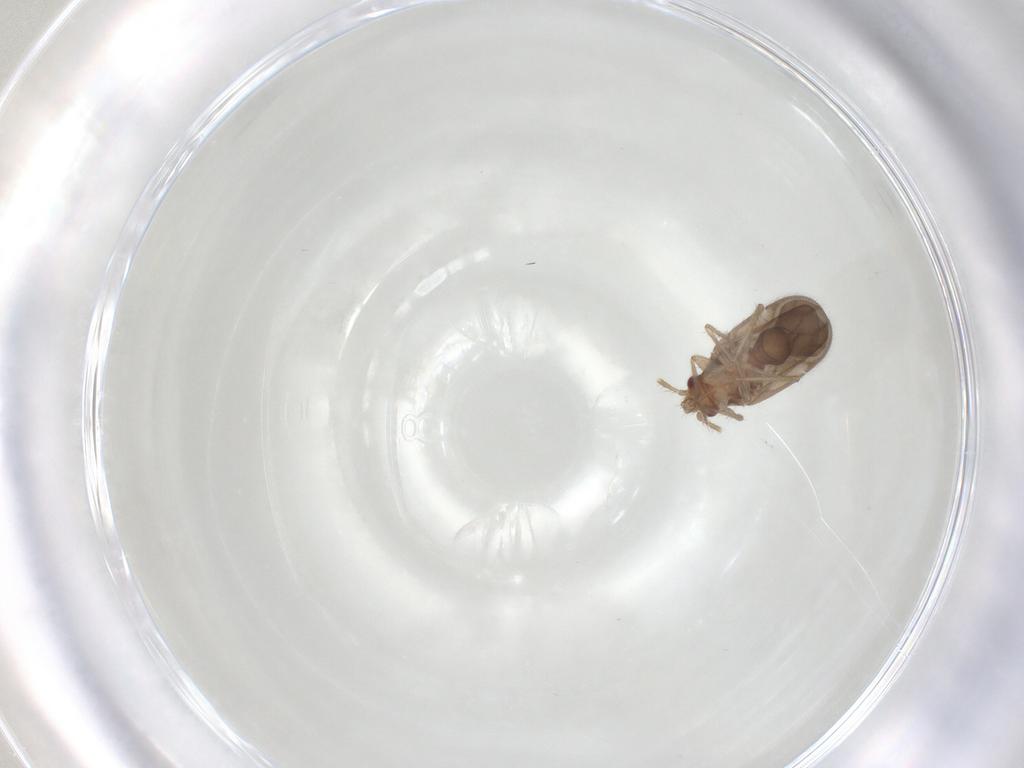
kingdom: Animalia
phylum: Arthropoda
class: Insecta
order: Hemiptera
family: Ceratocombidae
